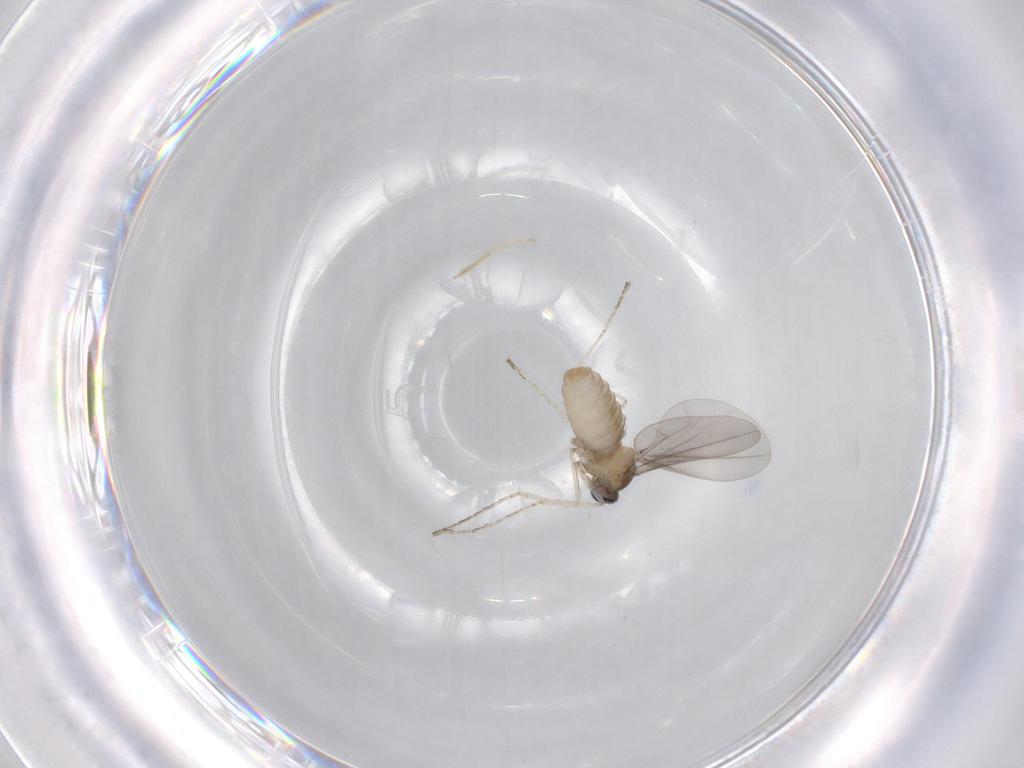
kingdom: Animalia
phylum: Arthropoda
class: Insecta
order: Diptera
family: Cecidomyiidae
